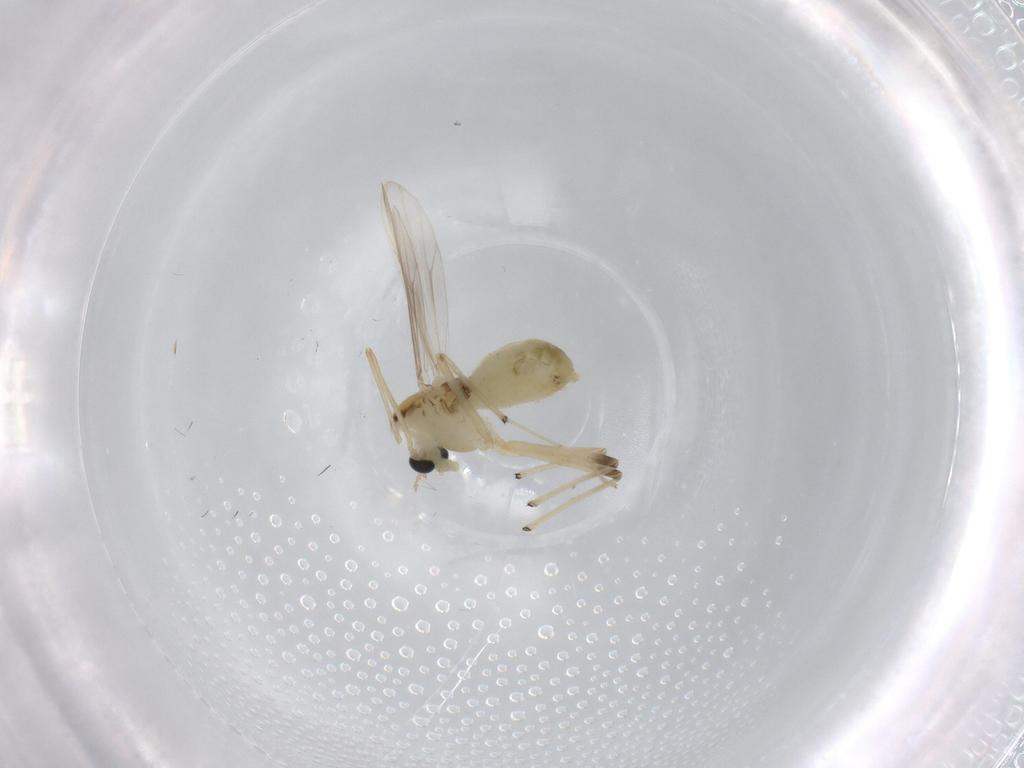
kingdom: Animalia
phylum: Arthropoda
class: Insecta
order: Diptera
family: Chironomidae
